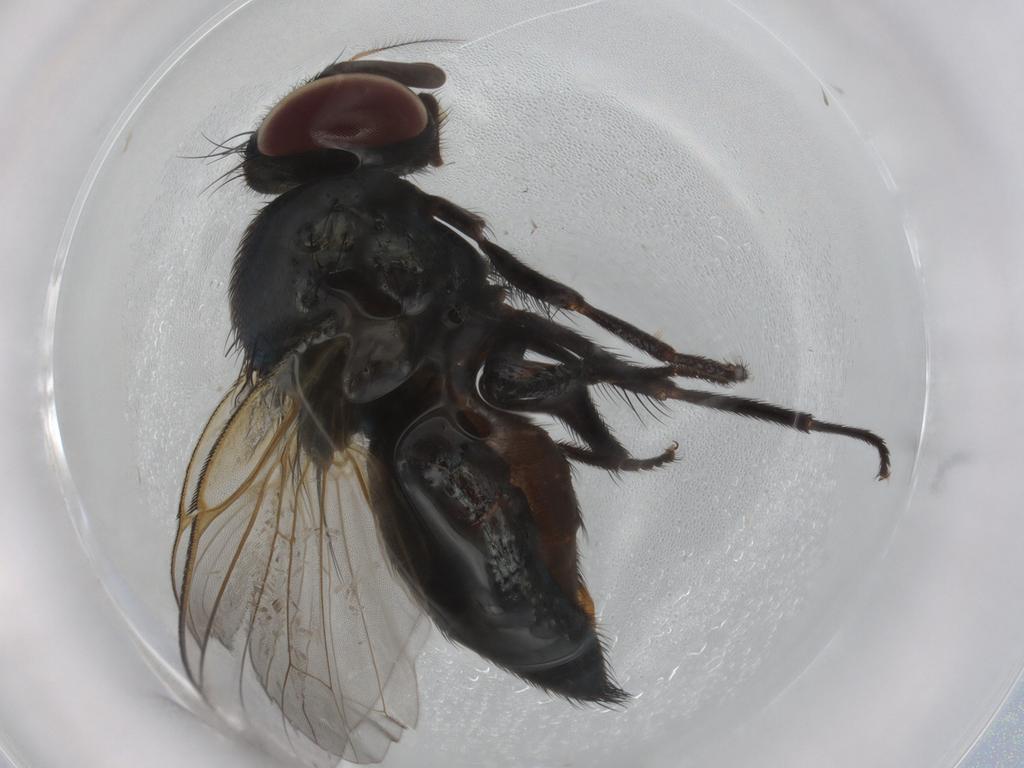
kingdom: Animalia
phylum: Arthropoda
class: Insecta
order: Diptera
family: Lonchaeidae
